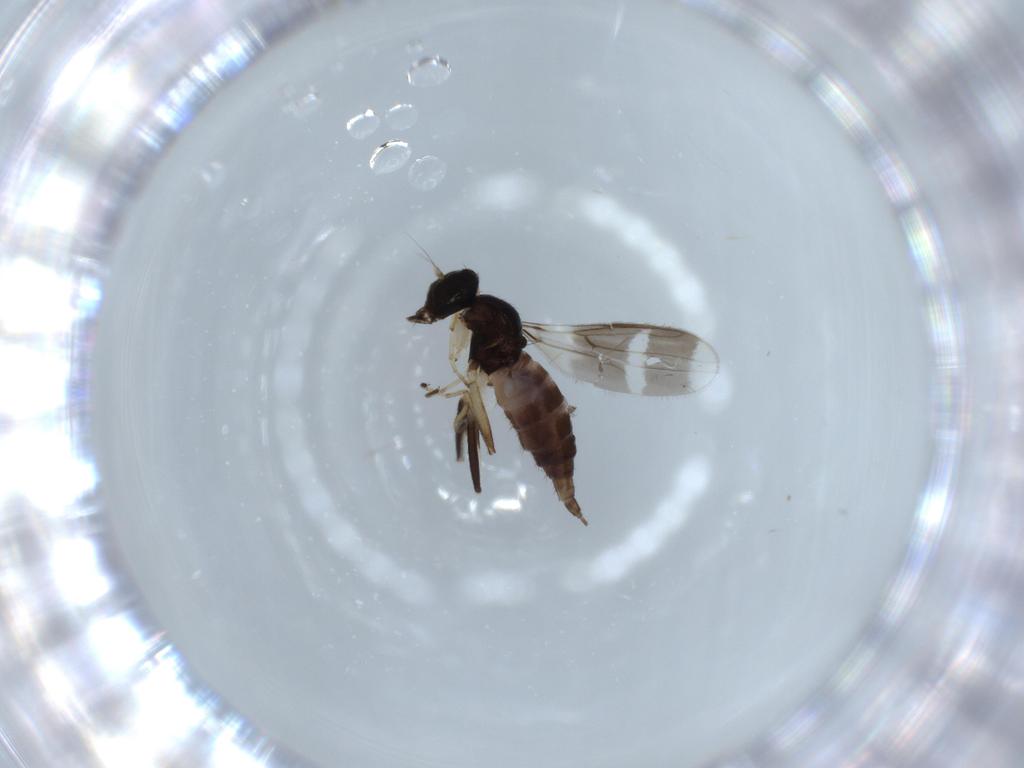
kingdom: Animalia
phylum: Arthropoda
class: Insecta
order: Diptera
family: Hybotidae
